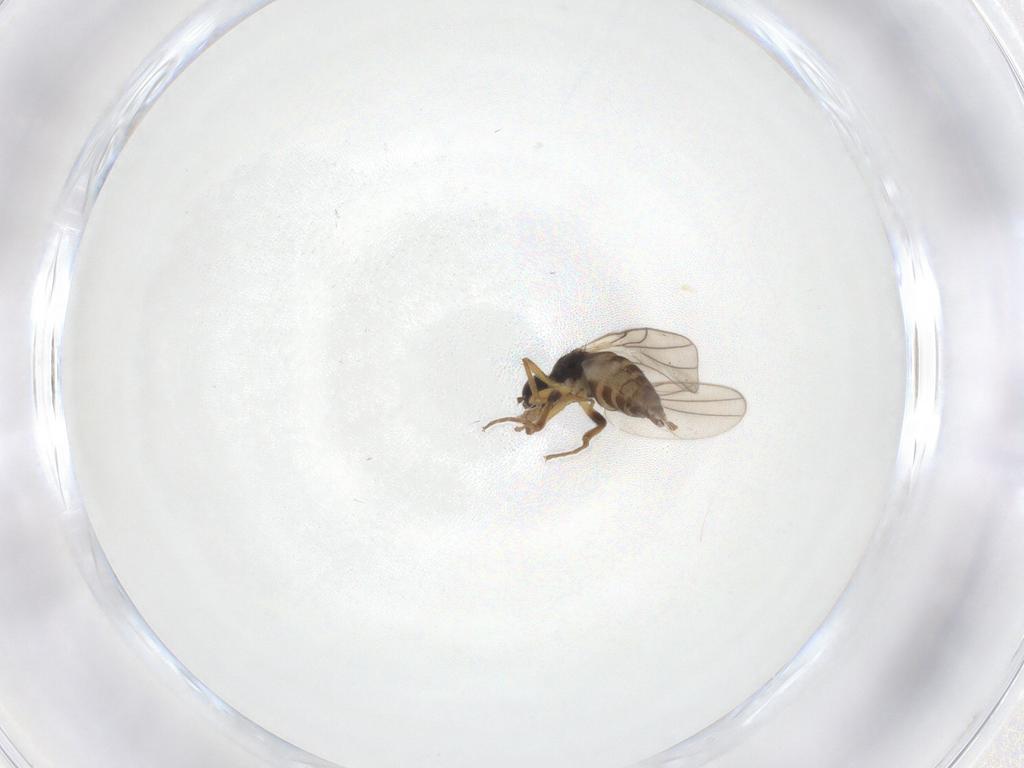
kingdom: Animalia
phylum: Arthropoda
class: Insecta
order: Diptera
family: Hybotidae
